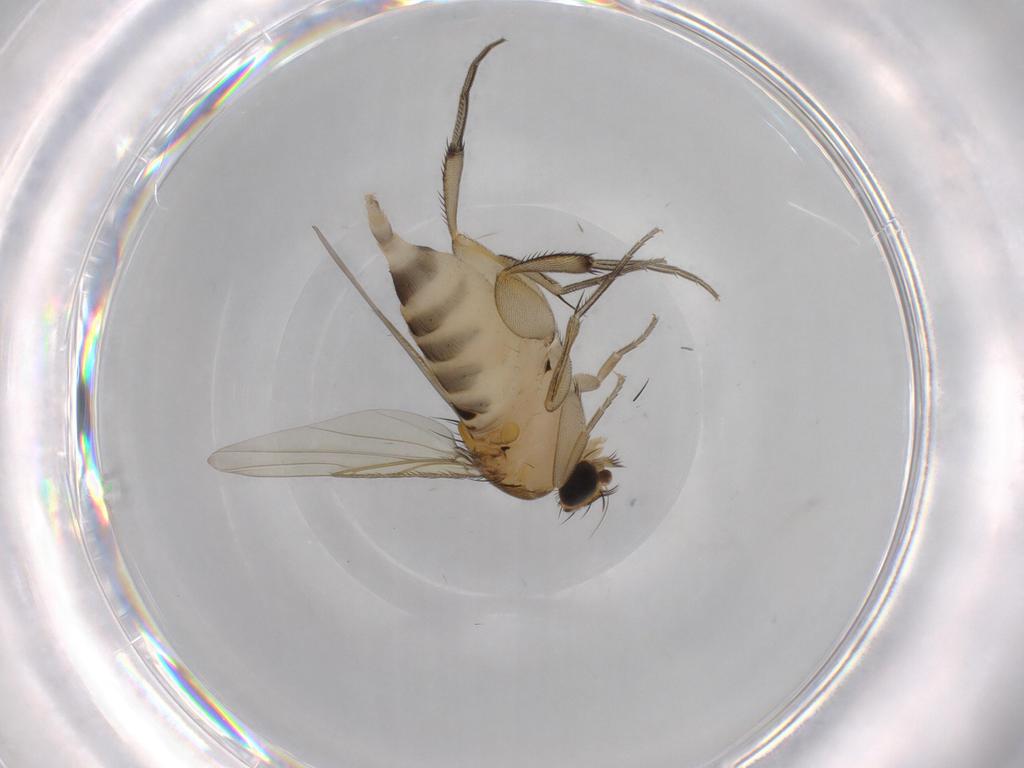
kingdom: Animalia
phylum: Arthropoda
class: Insecta
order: Diptera
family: Phoridae
